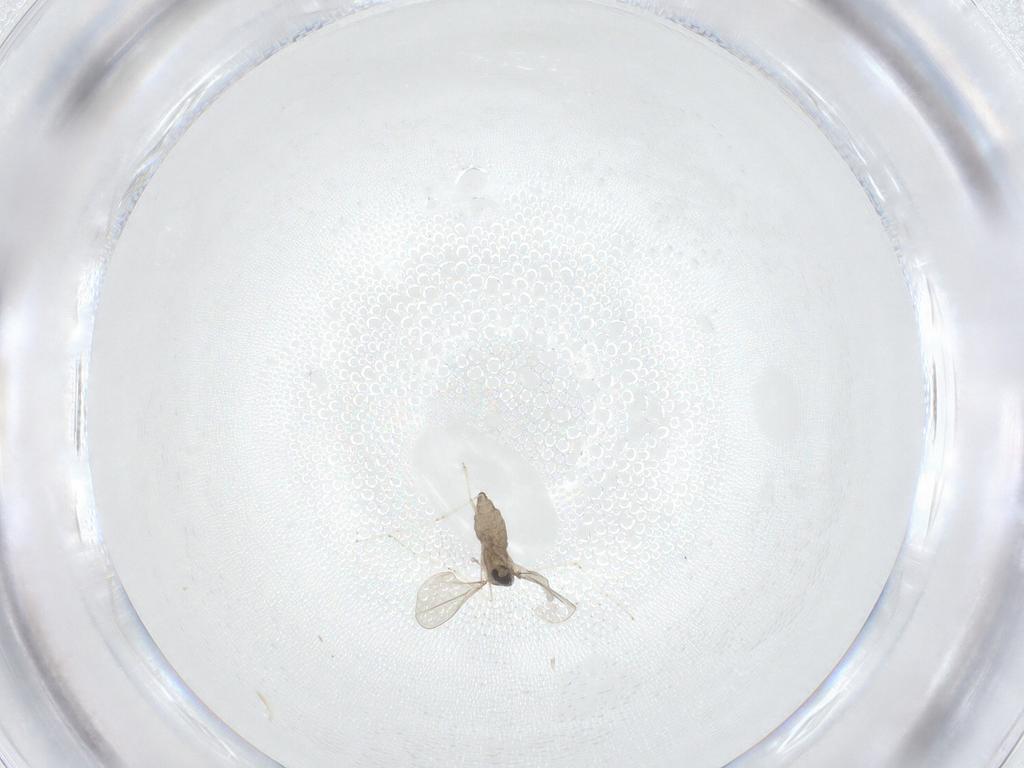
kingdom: Animalia
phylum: Arthropoda
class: Insecta
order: Diptera
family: Cecidomyiidae
